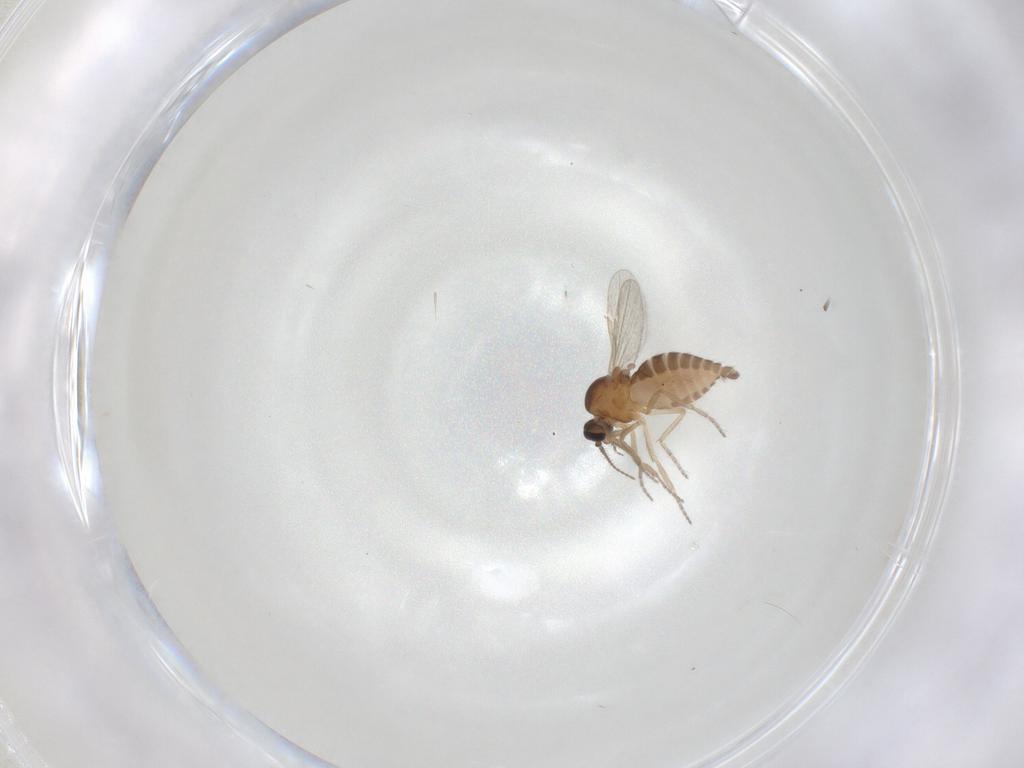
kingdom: Animalia
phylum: Arthropoda
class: Insecta
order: Diptera
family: Ceratopogonidae
